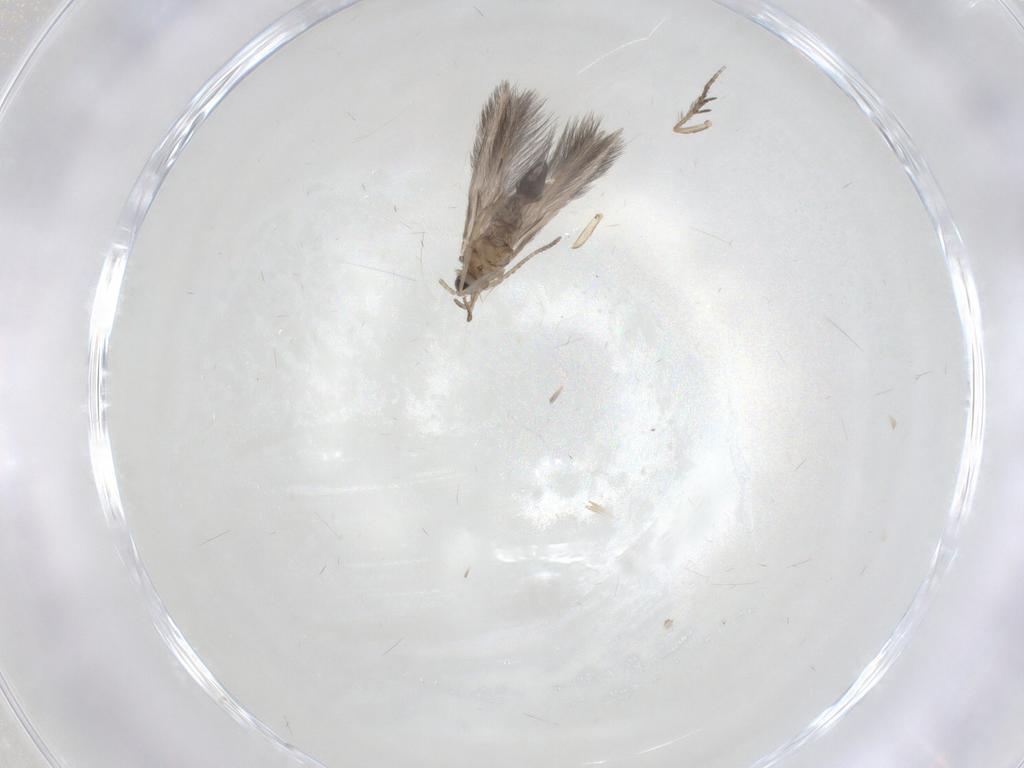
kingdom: Animalia
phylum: Arthropoda
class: Insecta
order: Trichoptera
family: Hydroptilidae
